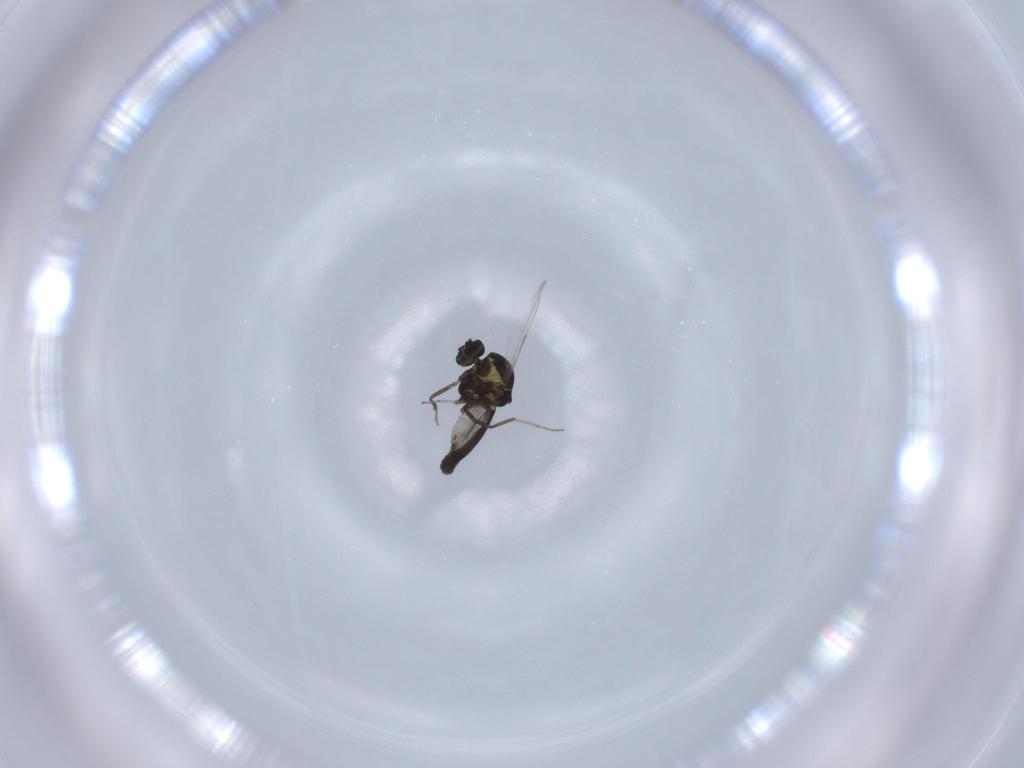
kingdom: Animalia
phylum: Arthropoda
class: Insecta
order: Diptera
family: Ceratopogonidae
